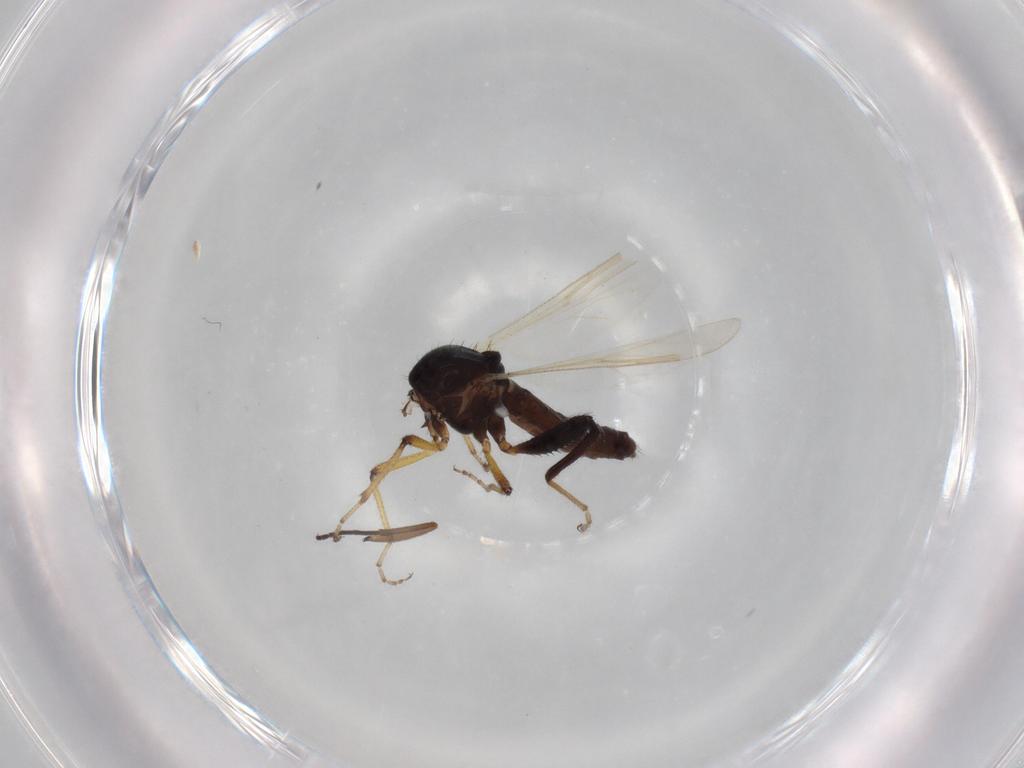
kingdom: Animalia
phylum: Arthropoda
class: Insecta
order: Diptera
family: Ceratopogonidae
